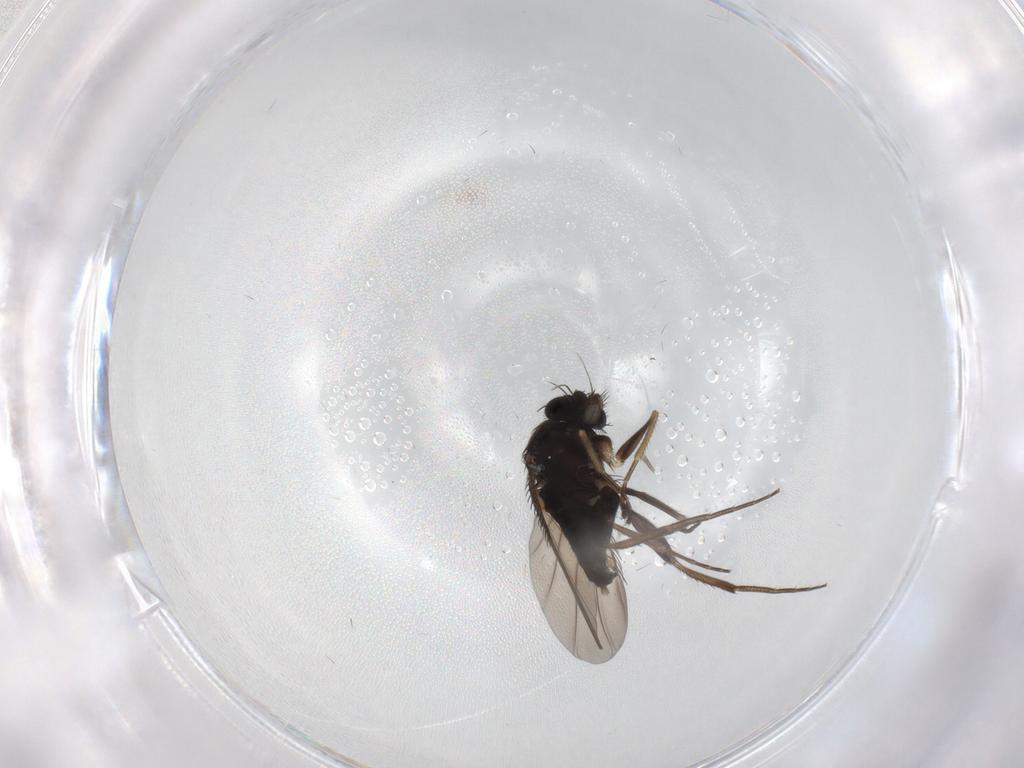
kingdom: Animalia
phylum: Arthropoda
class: Insecta
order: Diptera
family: Phoridae
